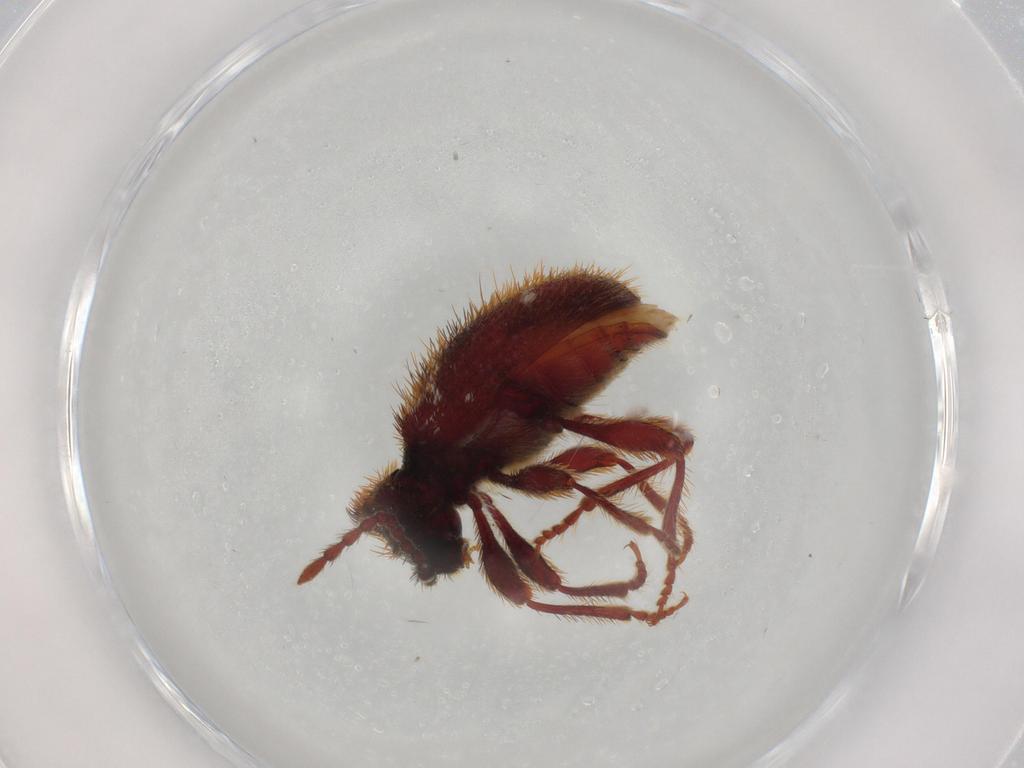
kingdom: Animalia
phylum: Arthropoda
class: Insecta
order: Coleoptera
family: Ptinidae
